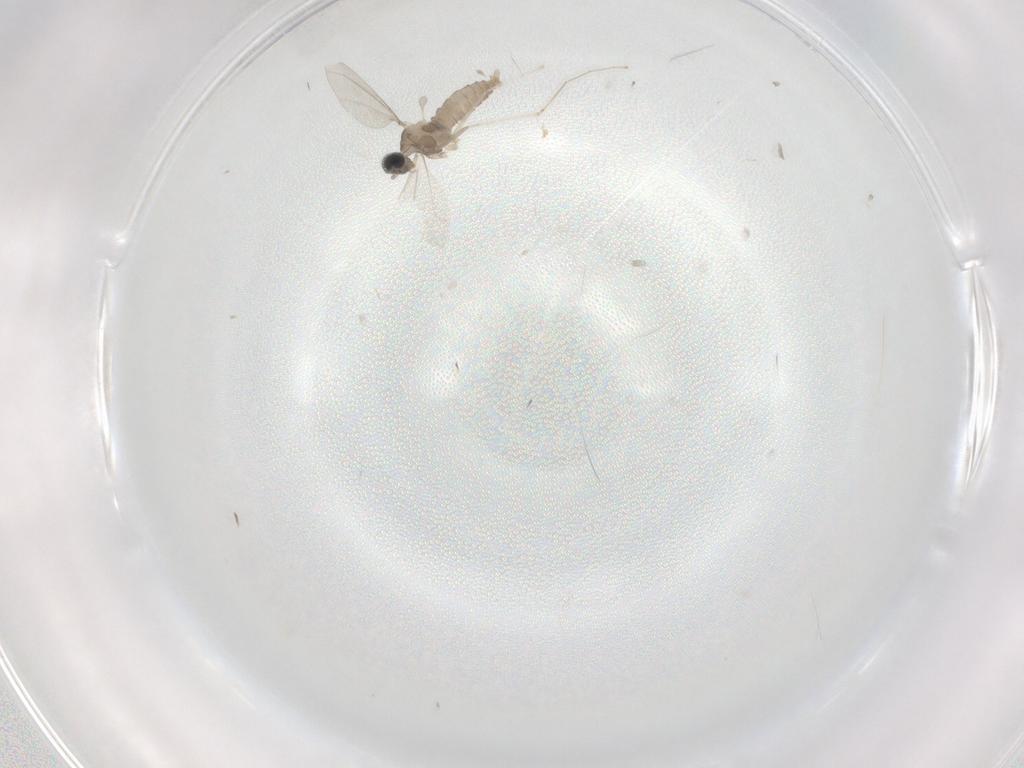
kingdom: Animalia
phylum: Arthropoda
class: Insecta
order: Diptera
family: Cecidomyiidae
